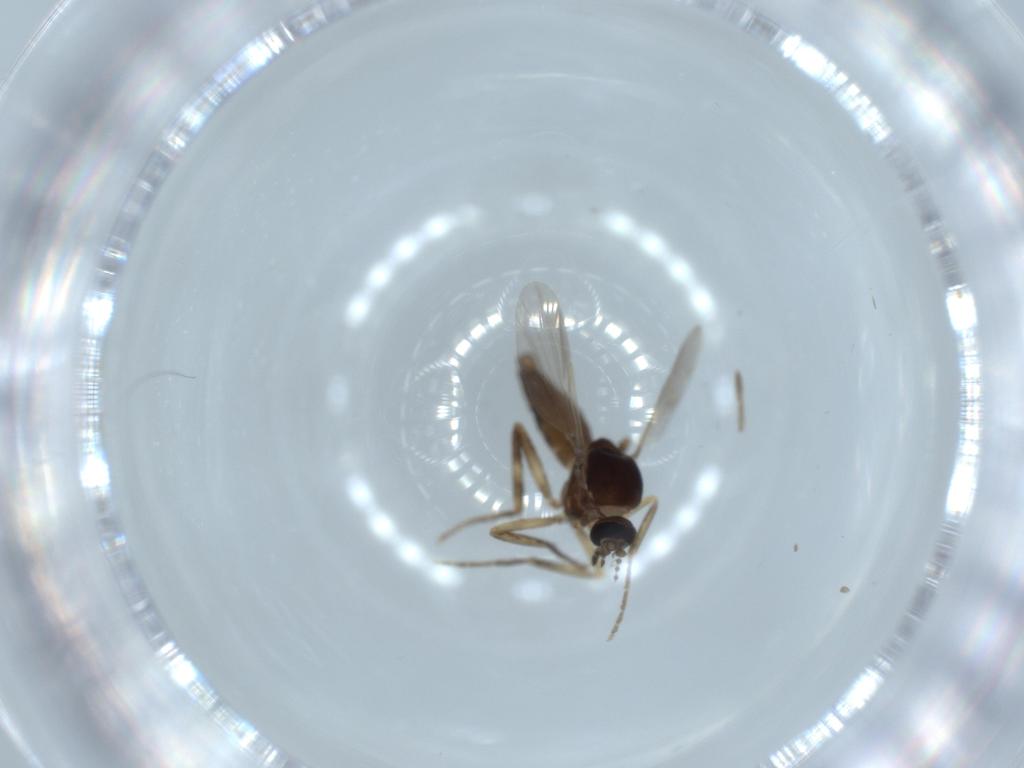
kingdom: Animalia
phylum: Arthropoda
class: Insecta
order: Diptera
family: Ceratopogonidae
